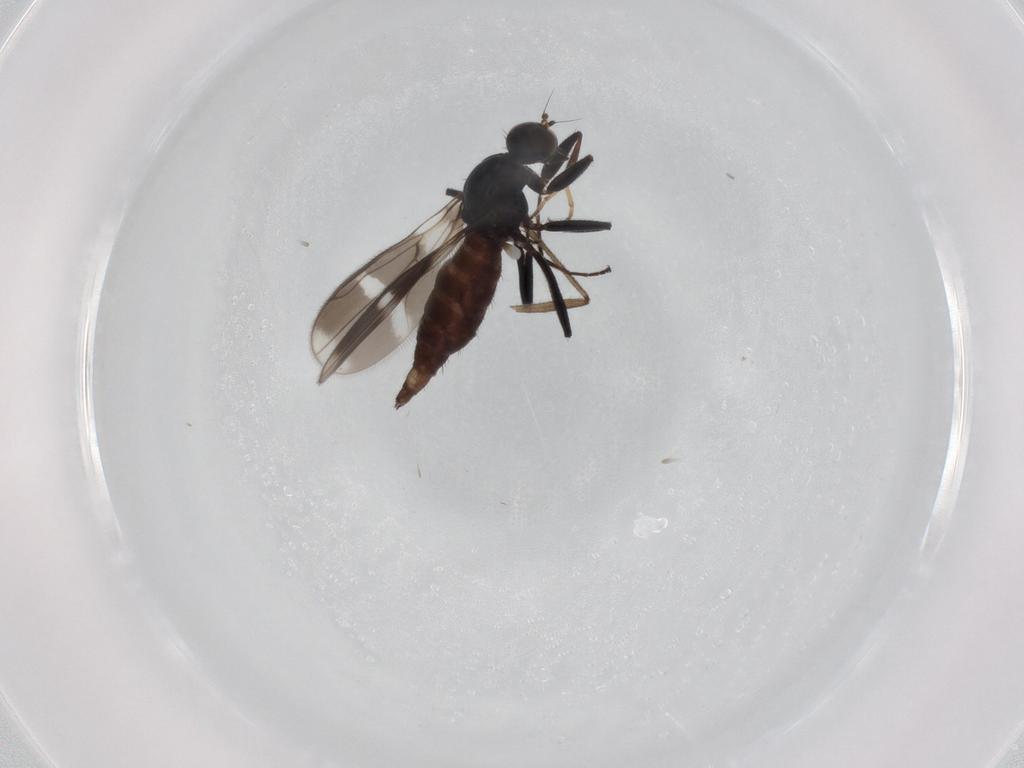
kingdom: Animalia
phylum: Arthropoda
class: Insecta
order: Diptera
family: Hybotidae
